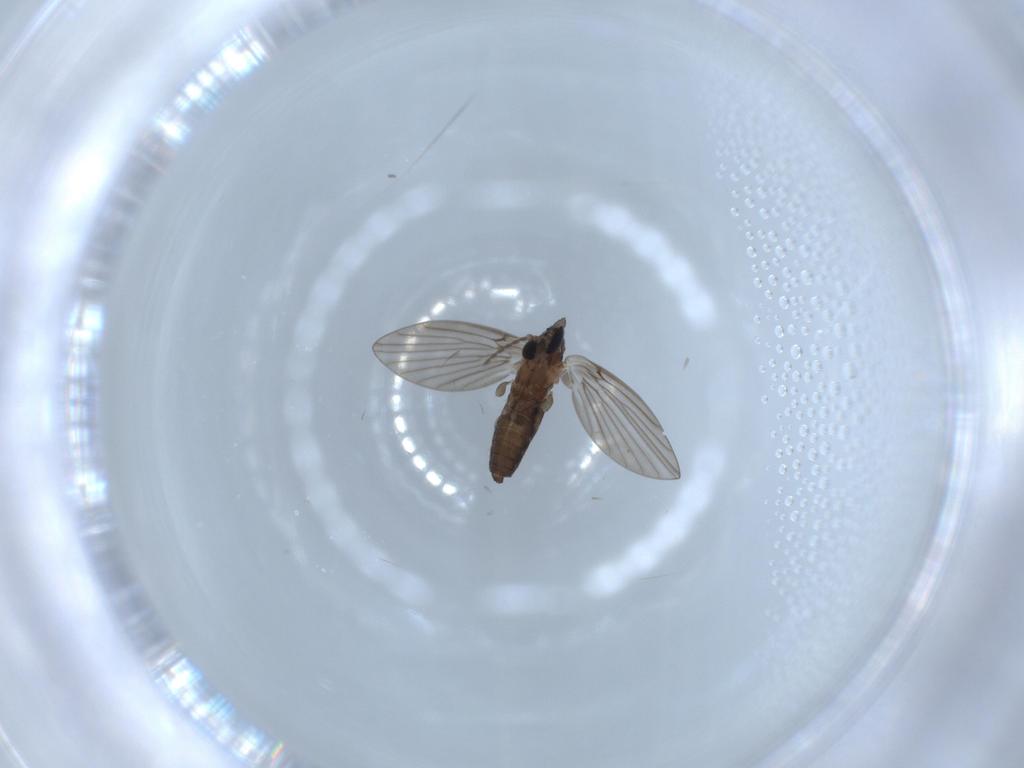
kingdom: Animalia
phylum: Arthropoda
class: Insecta
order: Diptera
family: Psychodidae
